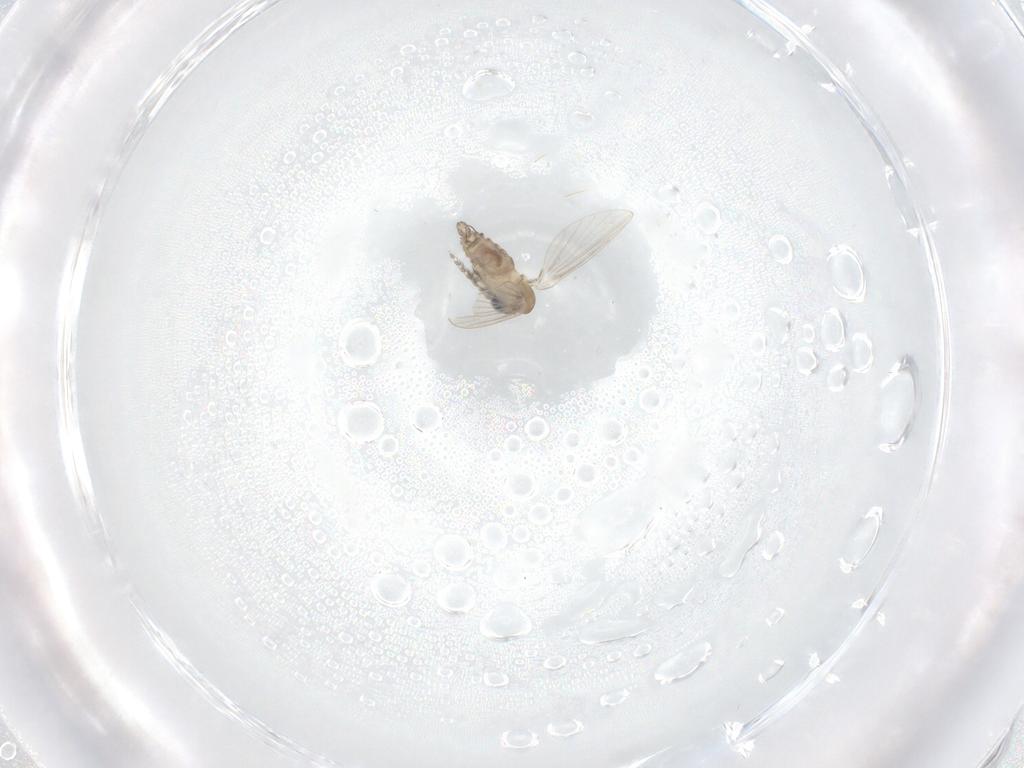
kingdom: Animalia
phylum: Arthropoda
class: Insecta
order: Diptera
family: Psychodidae
